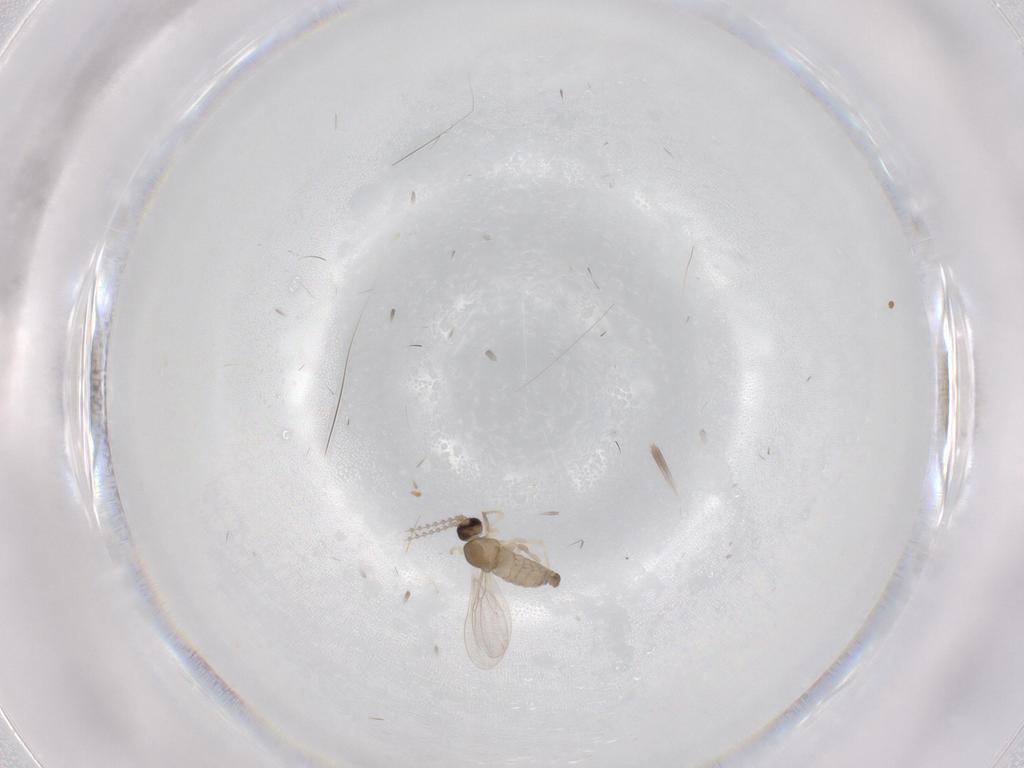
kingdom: Animalia
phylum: Arthropoda
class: Insecta
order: Diptera
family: Cecidomyiidae
